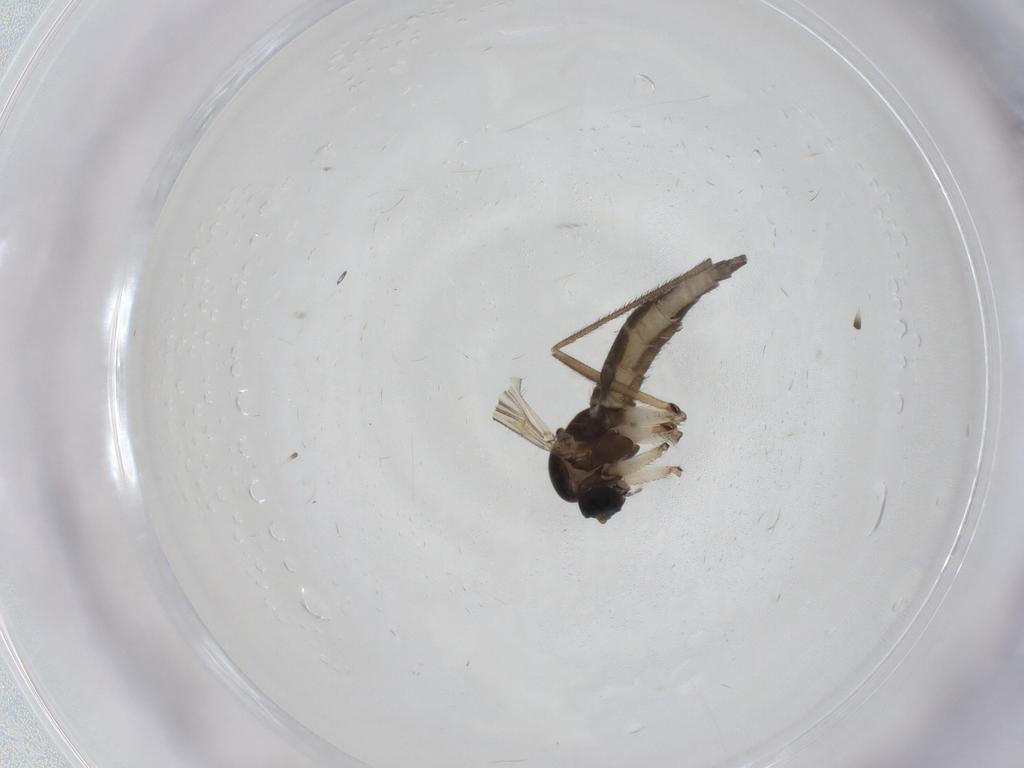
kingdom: Animalia
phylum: Arthropoda
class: Insecta
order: Diptera
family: Sciaridae
